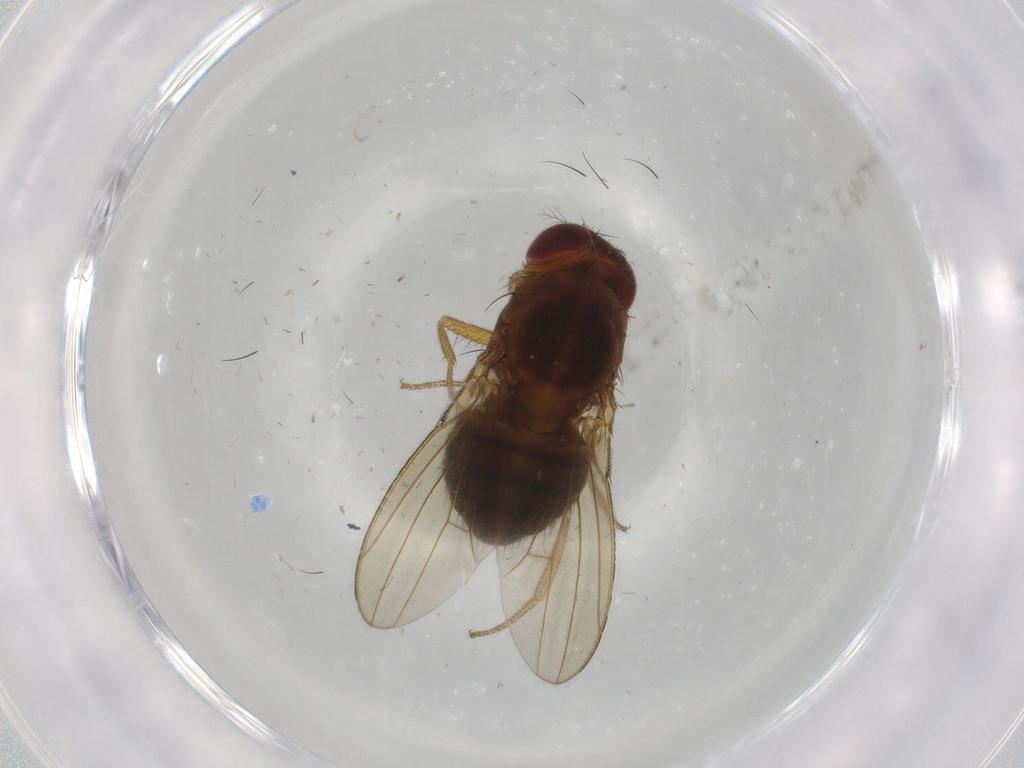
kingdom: Animalia
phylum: Arthropoda
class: Insecta
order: Diptera
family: Drosophilidae
